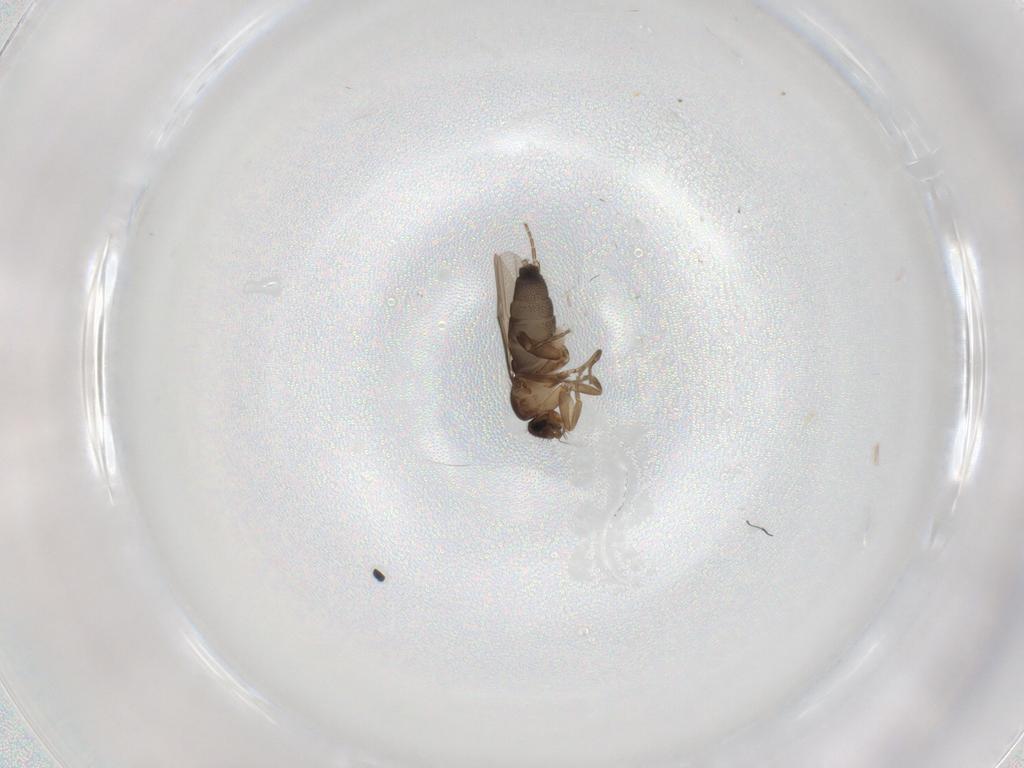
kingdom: Animalia
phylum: Arthropoda
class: Insecta
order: Diptera
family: Phoridae
